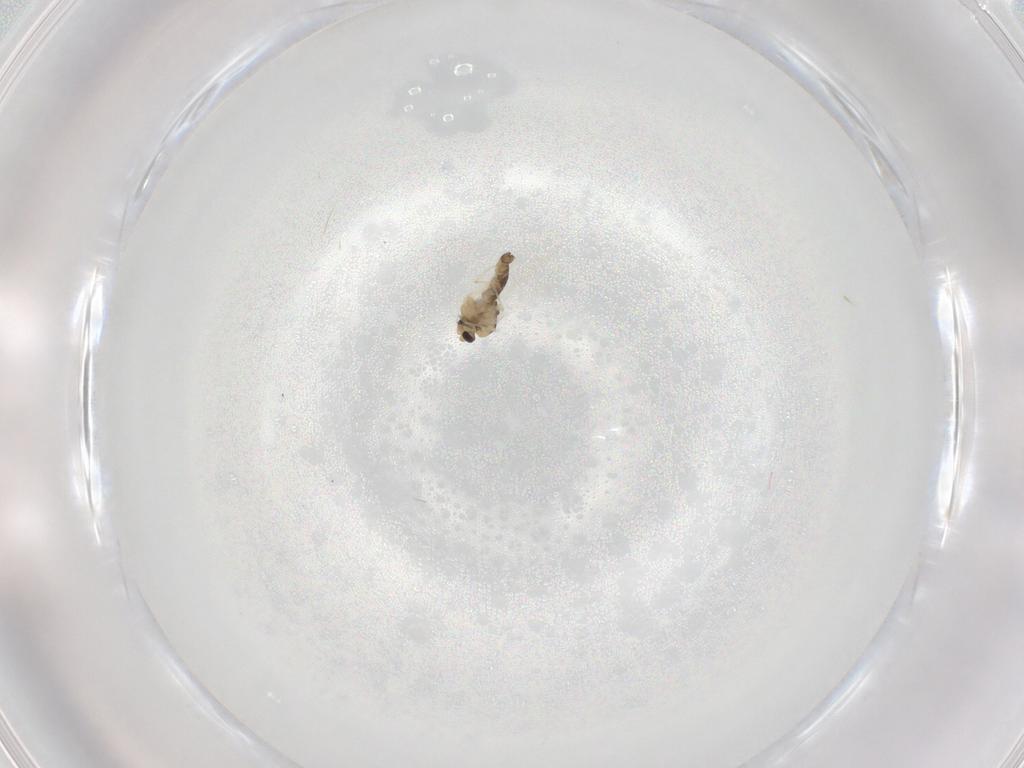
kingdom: Animalia
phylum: Arthropoda
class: Insecta
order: Diptera
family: Chironomidae
